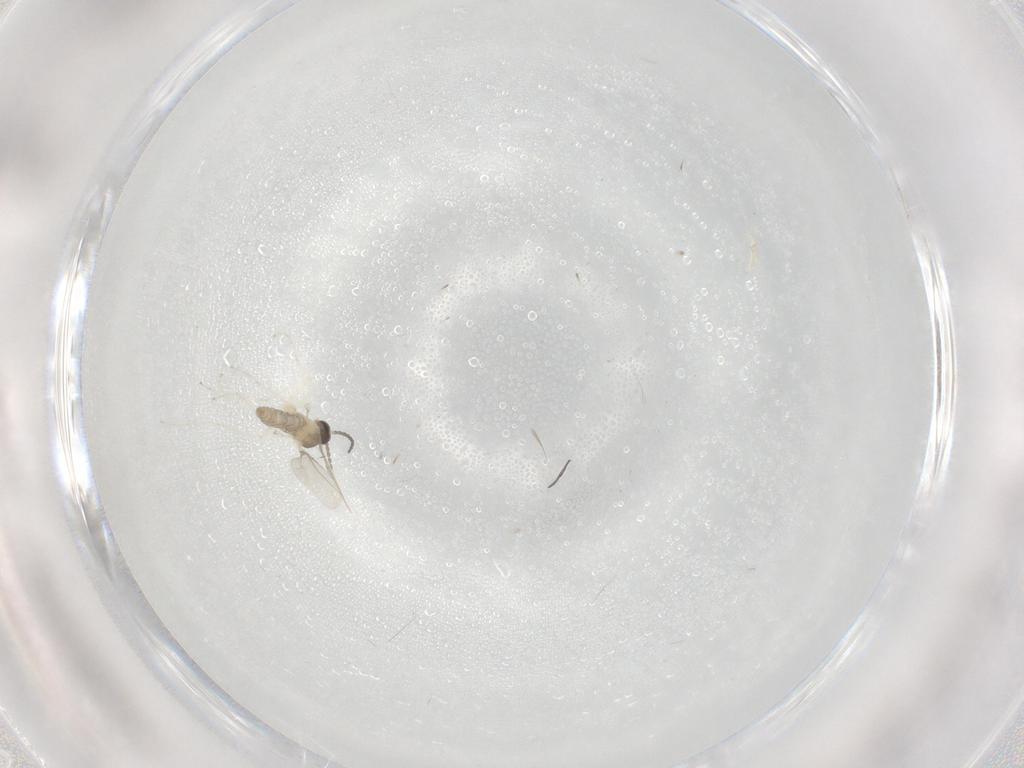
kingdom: Animalia
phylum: Arthropoda
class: Insecta
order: Diptera
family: Cecidomyiidae
